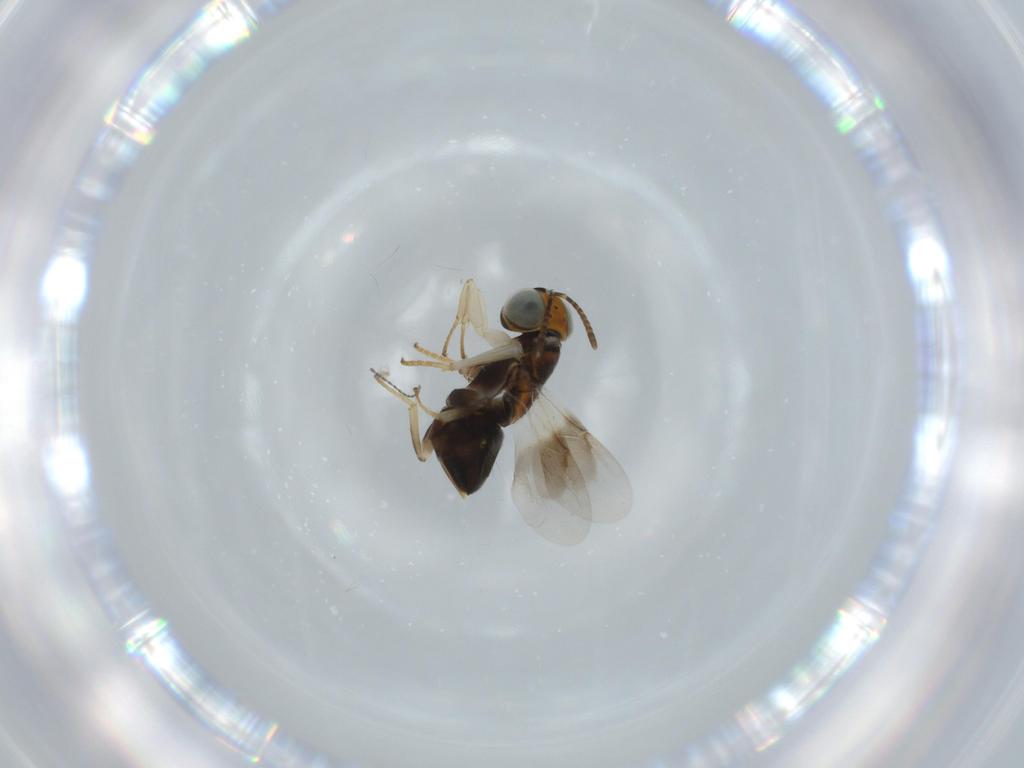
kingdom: Animalia
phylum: Arthropoda
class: Insecta
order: Hymenoptera
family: Formicidae
